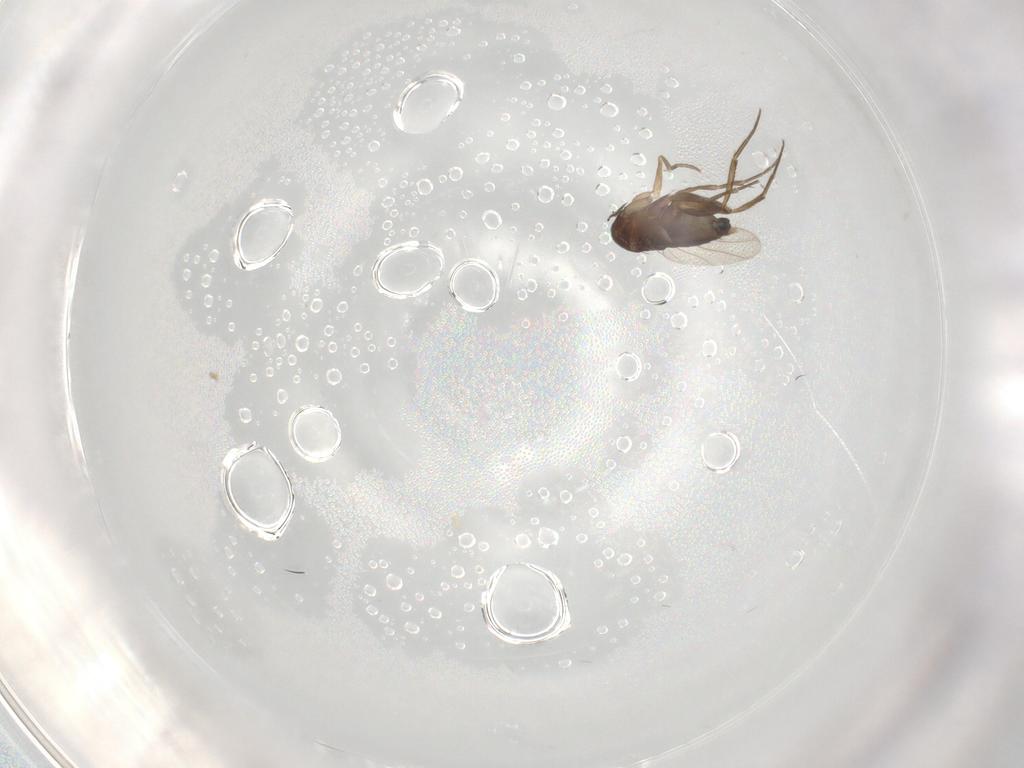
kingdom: Animalia
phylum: Arthropoda
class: Insecta
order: Diptera
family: Phoridae
